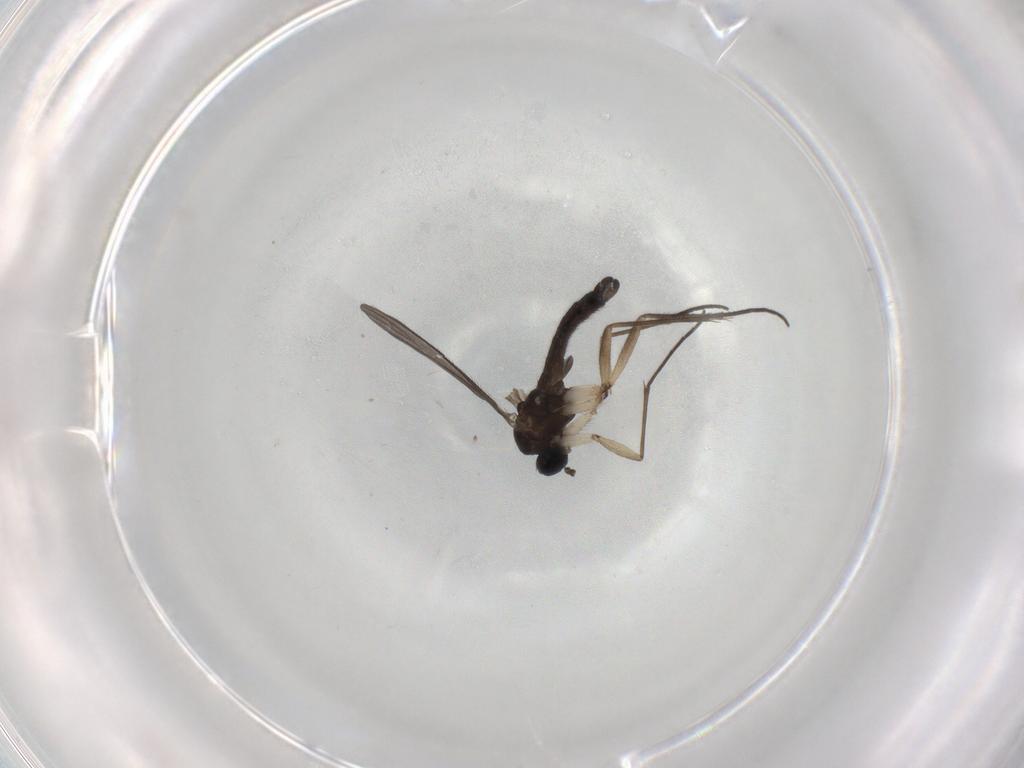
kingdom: Animalia
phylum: Arthropoda
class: Insecta
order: Diptera
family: Sciaridae
